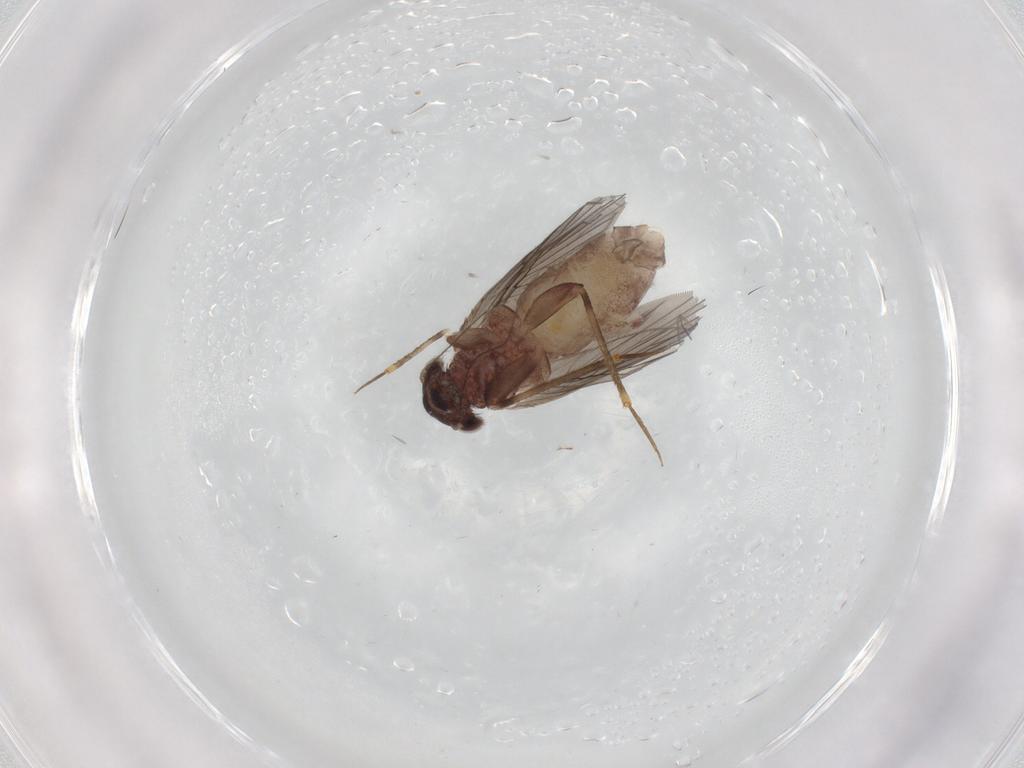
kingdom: Animalia
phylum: Arthropoda
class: Insecta
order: Psocodea
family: Lepidopsocidae
